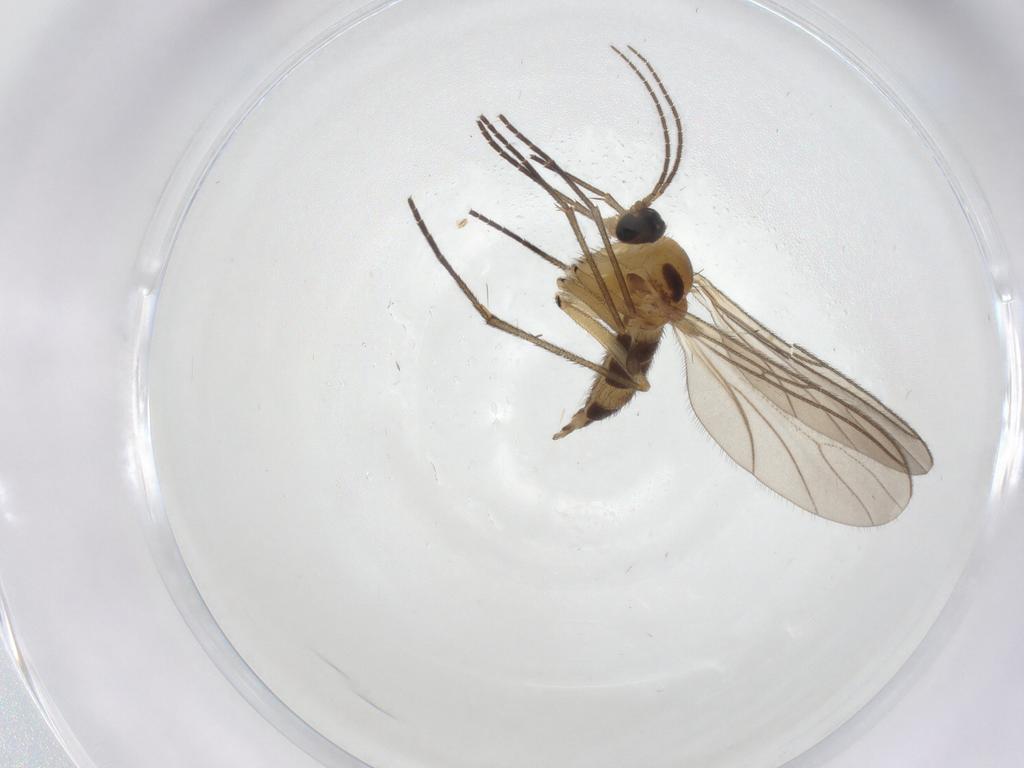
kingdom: Animalia
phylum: Arthropoda
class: Insecta
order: Diptera
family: Sciaridae
